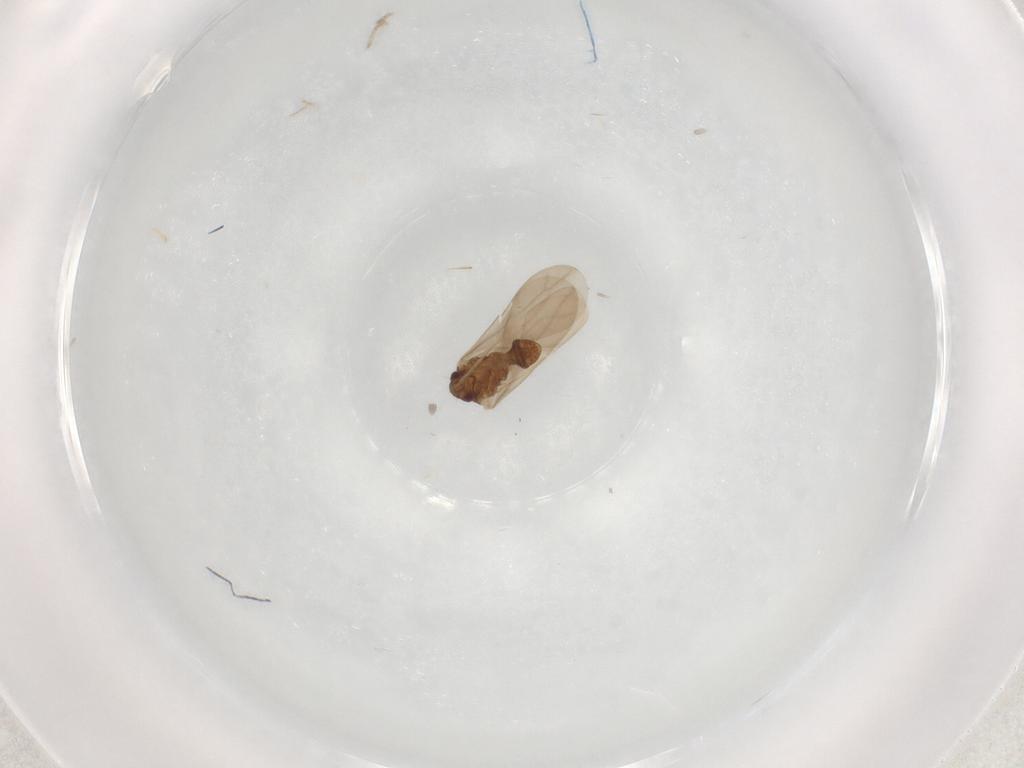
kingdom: Animalia
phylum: Arthropoda
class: Insecta
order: Hemiptera
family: Ceratocombidae
